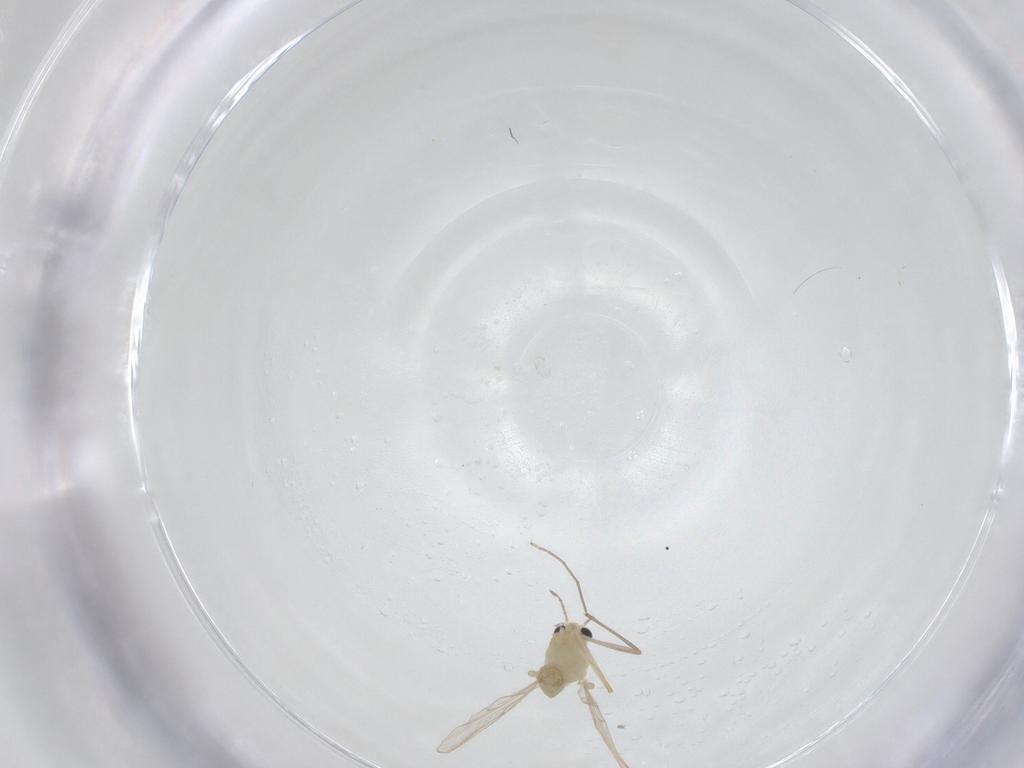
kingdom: Animalia
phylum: Arthropoda
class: Insecta
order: Diptera
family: Chironomidae
